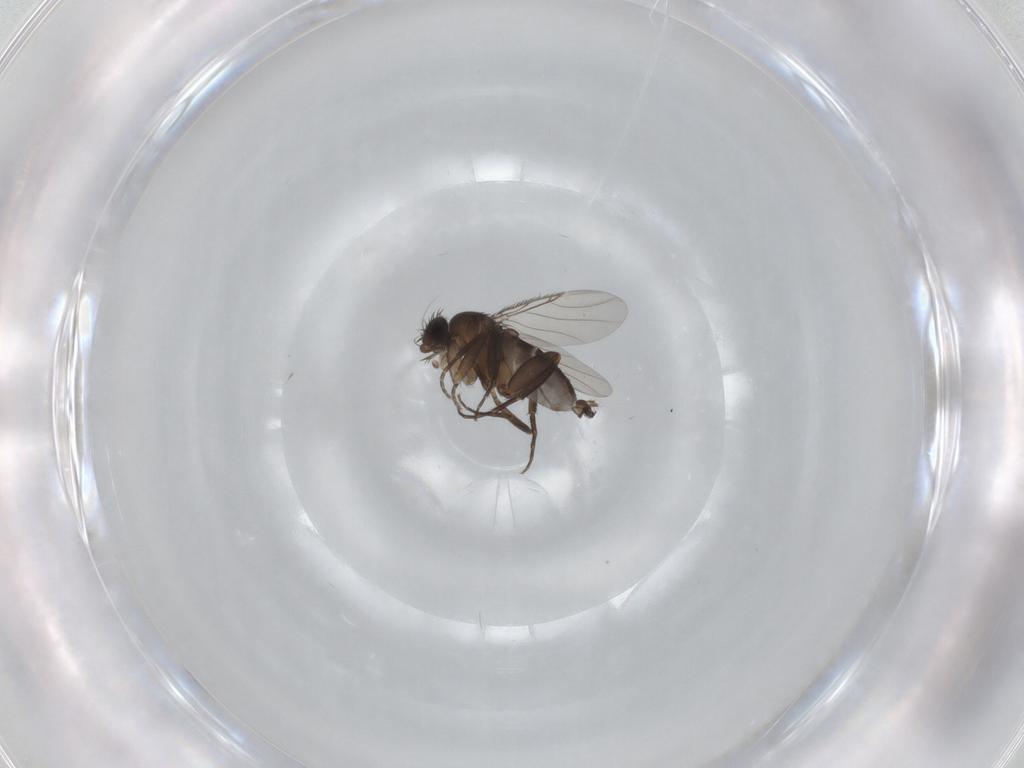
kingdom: Animalia
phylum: Arthropoda
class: Insecta
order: Diptera
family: Phoridae
